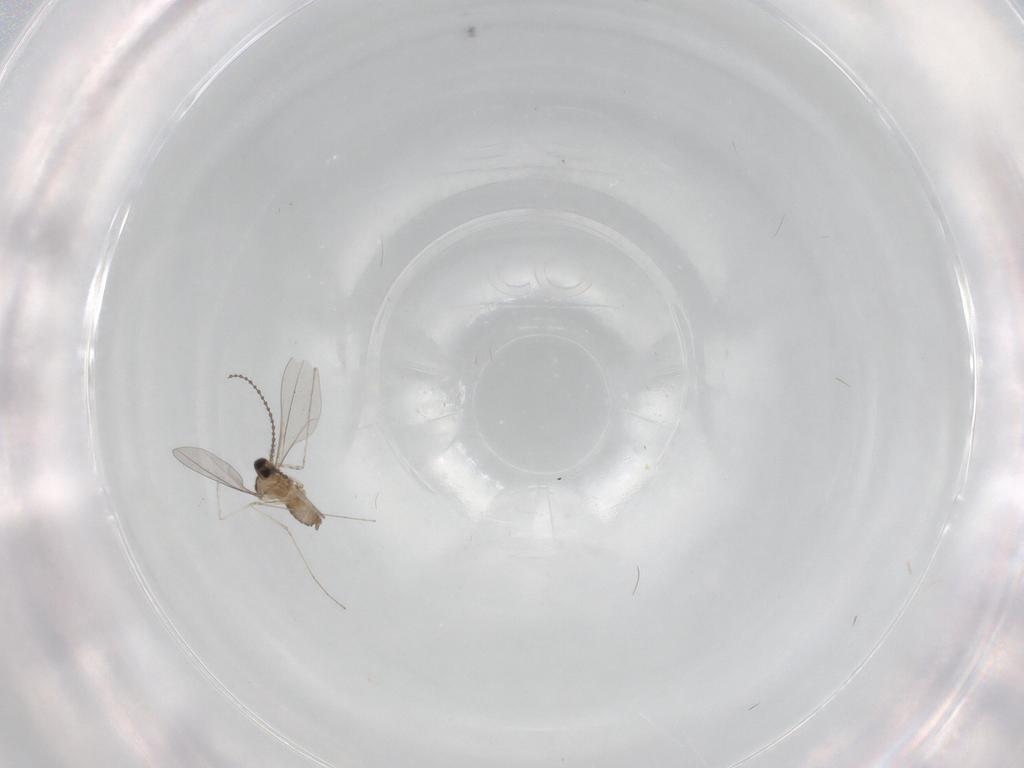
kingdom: Animalia
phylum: Arthropoda
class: Insecta
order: Diptera
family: Cecidomyiidae
